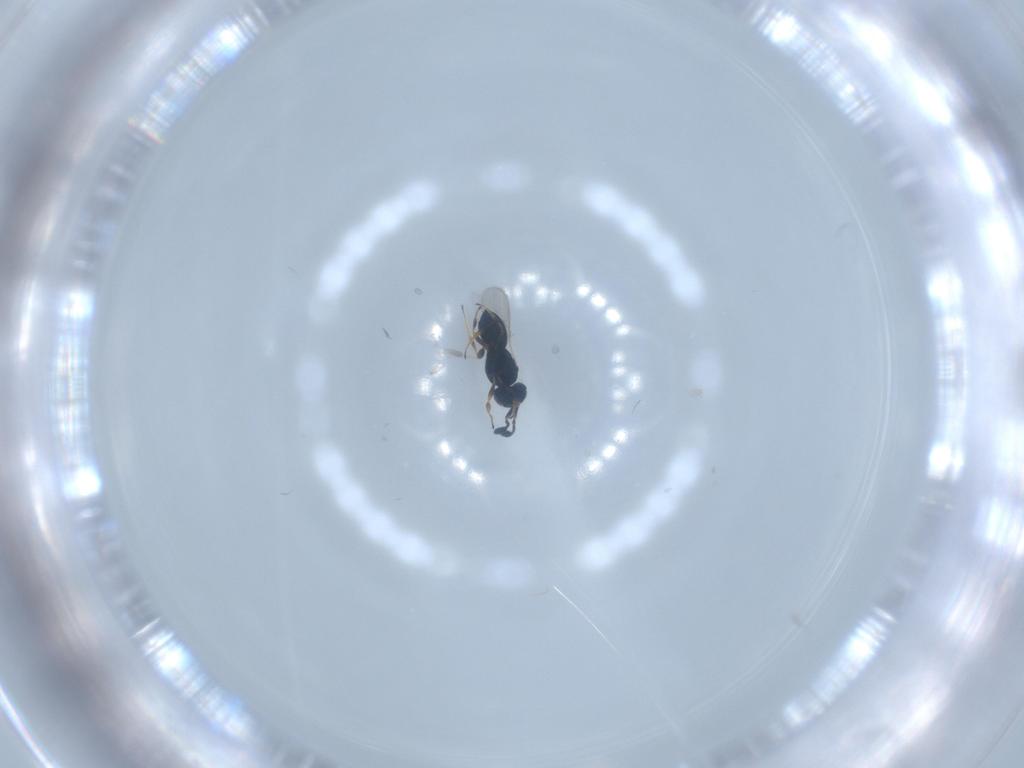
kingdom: Animalia
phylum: Arthropoda
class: Insecta
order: Hymenoptera
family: Scelionidae
